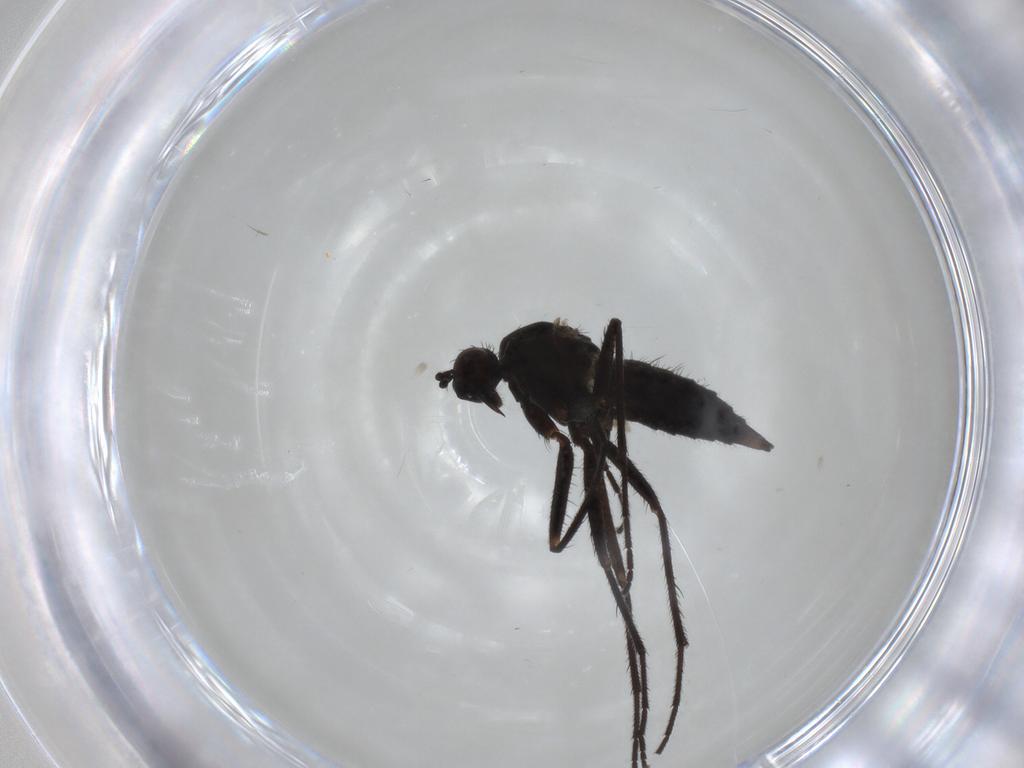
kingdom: Animalia
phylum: Arthropoda
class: Insecta
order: Diptera
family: Empididae
